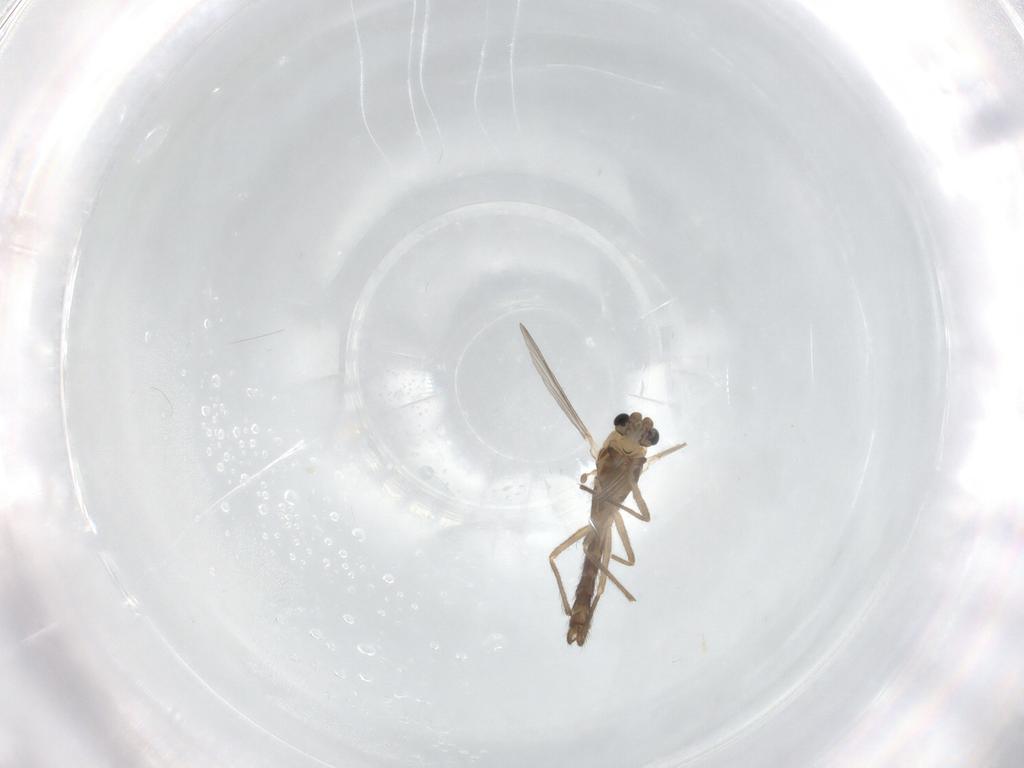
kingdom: Animalia
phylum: Arthropoda
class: Insecta
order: Diptera
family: Chironomidae
